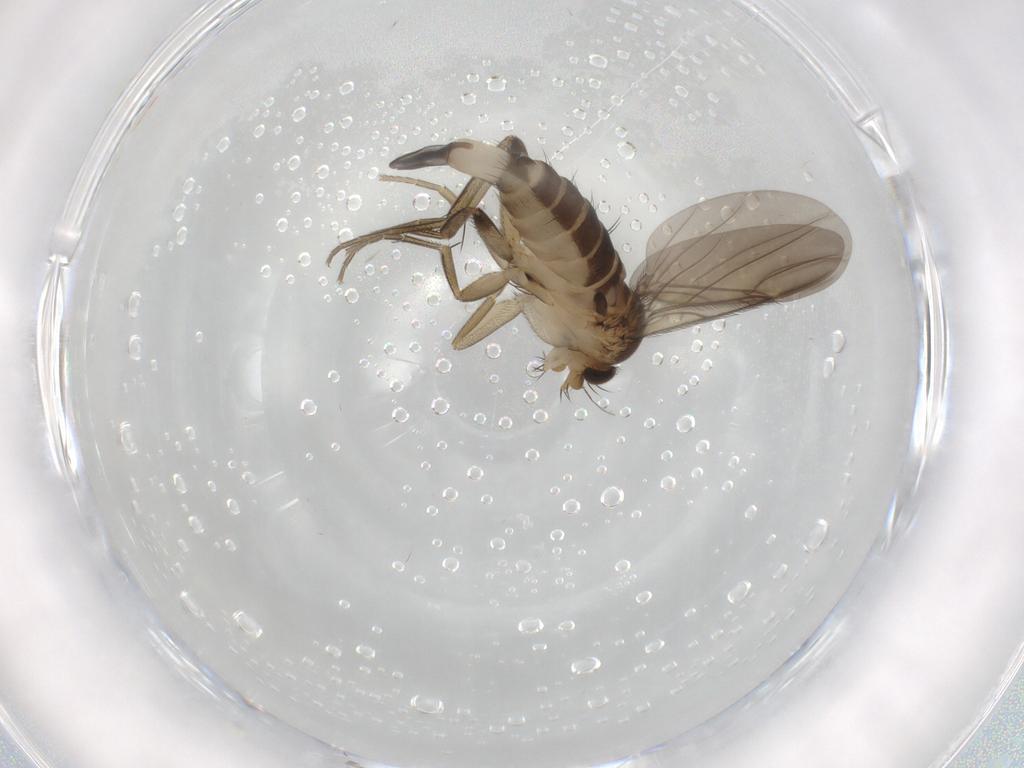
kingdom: Animalia
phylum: Arthropoda
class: Insecta
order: Diptera
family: Phoridae
